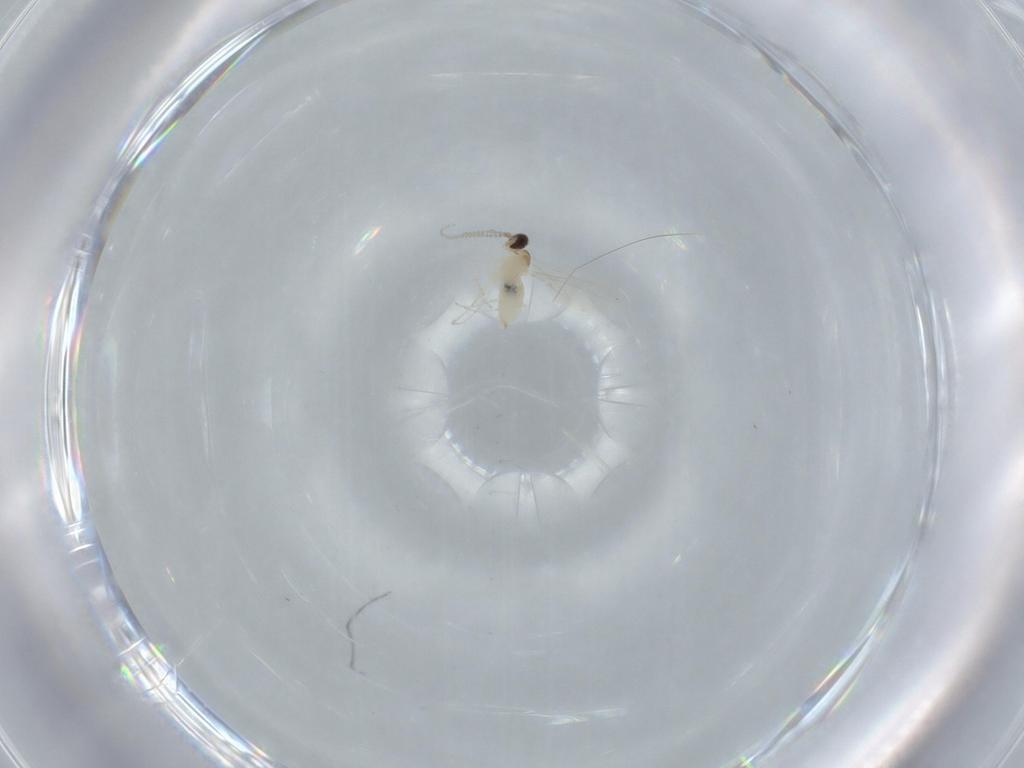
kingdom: Animalia
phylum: Arthropoda
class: Insecta
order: Diptera
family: Cecidomyiidae
